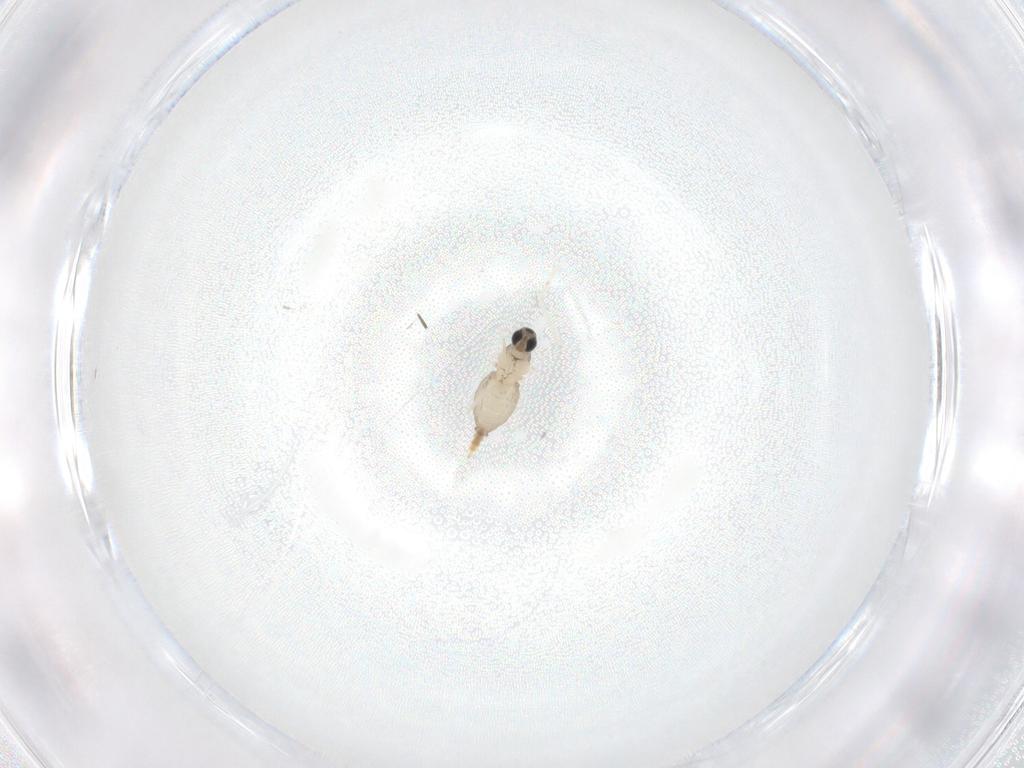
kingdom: Animalia
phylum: Arthropoda
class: Insecta
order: Diptera
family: Cecidomyiidae
